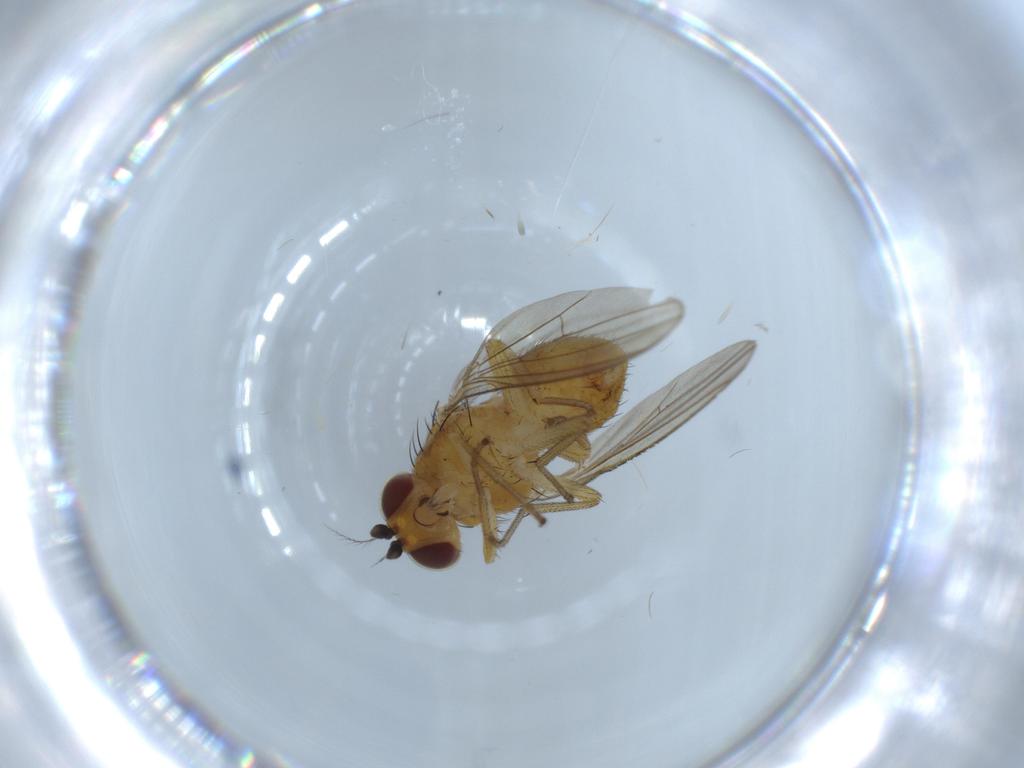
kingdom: Animalia
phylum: Arthropoda
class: Insecta
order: Diptera
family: Lauxaniidae
